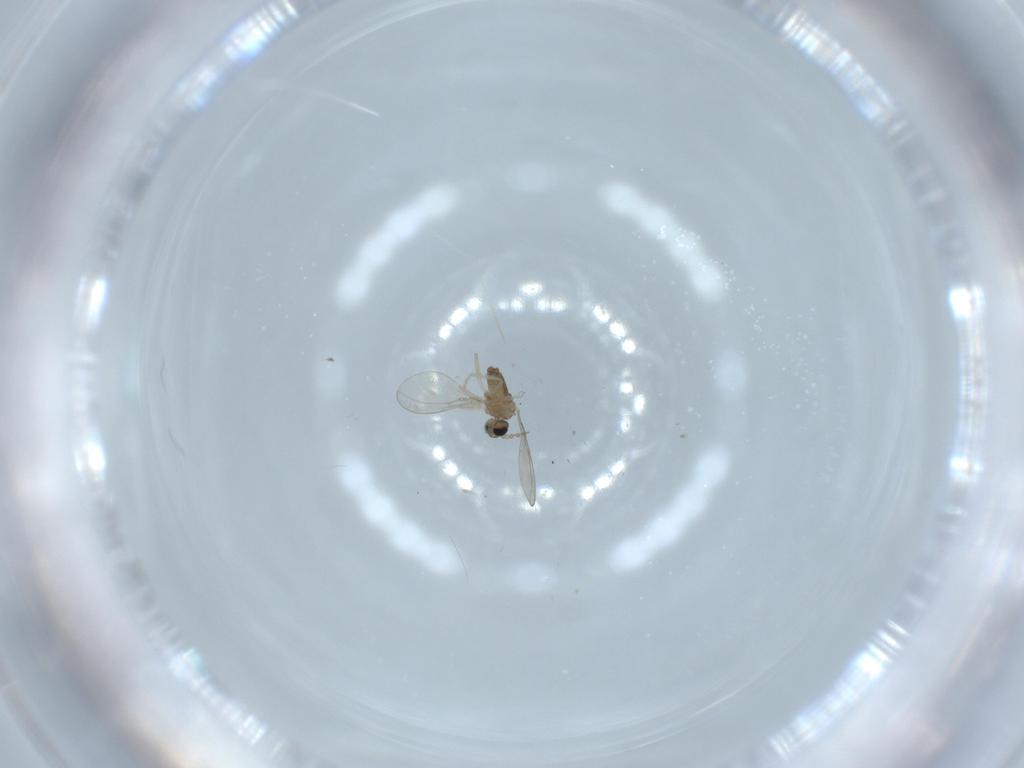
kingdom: Animalia
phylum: Arthropoda
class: Insecta
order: Diptera
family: Cecidomyiidae
